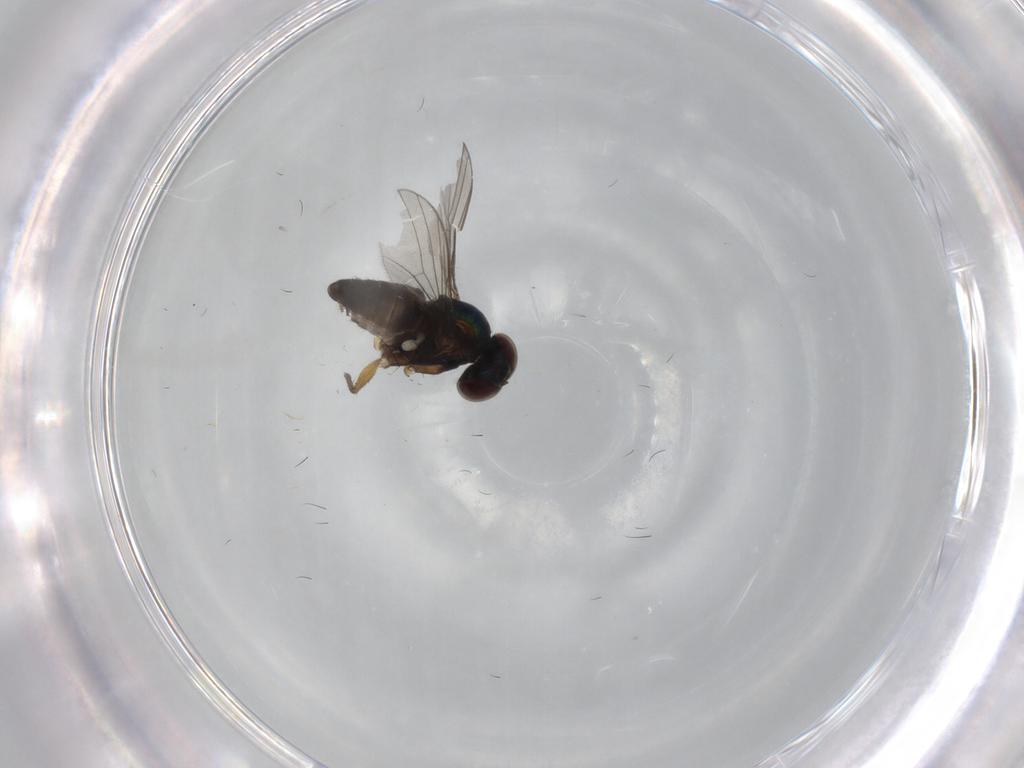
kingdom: Animalia
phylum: Arthropoda
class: Insecta
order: Diptera
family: Dolichopodidae
